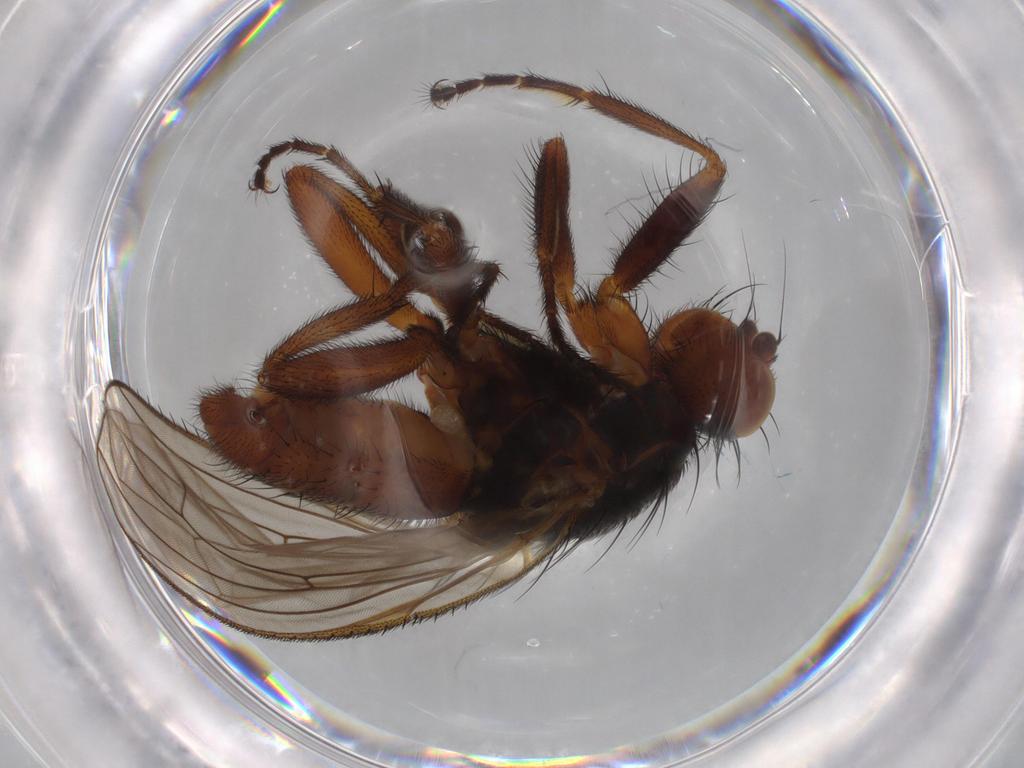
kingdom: Animalia
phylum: Arthropoda
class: Insecta
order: Diptera
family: Heleomyzidae
